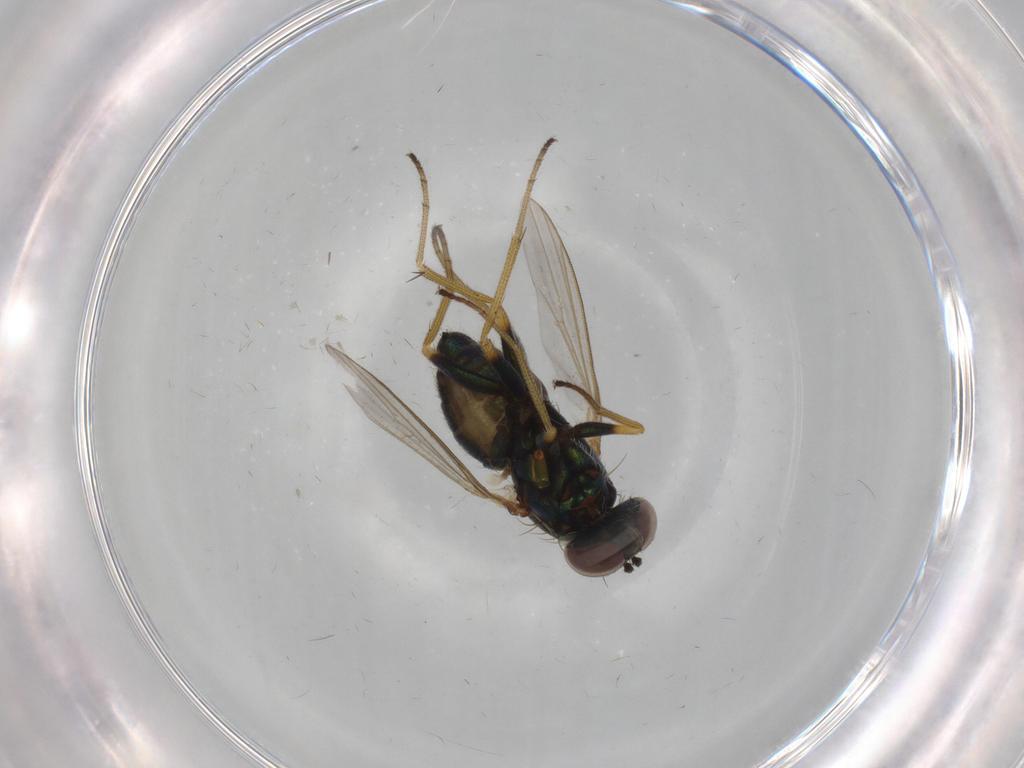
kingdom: Animalia
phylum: Arthropoda
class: Insecta
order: Diptera
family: Dolichopodidae
